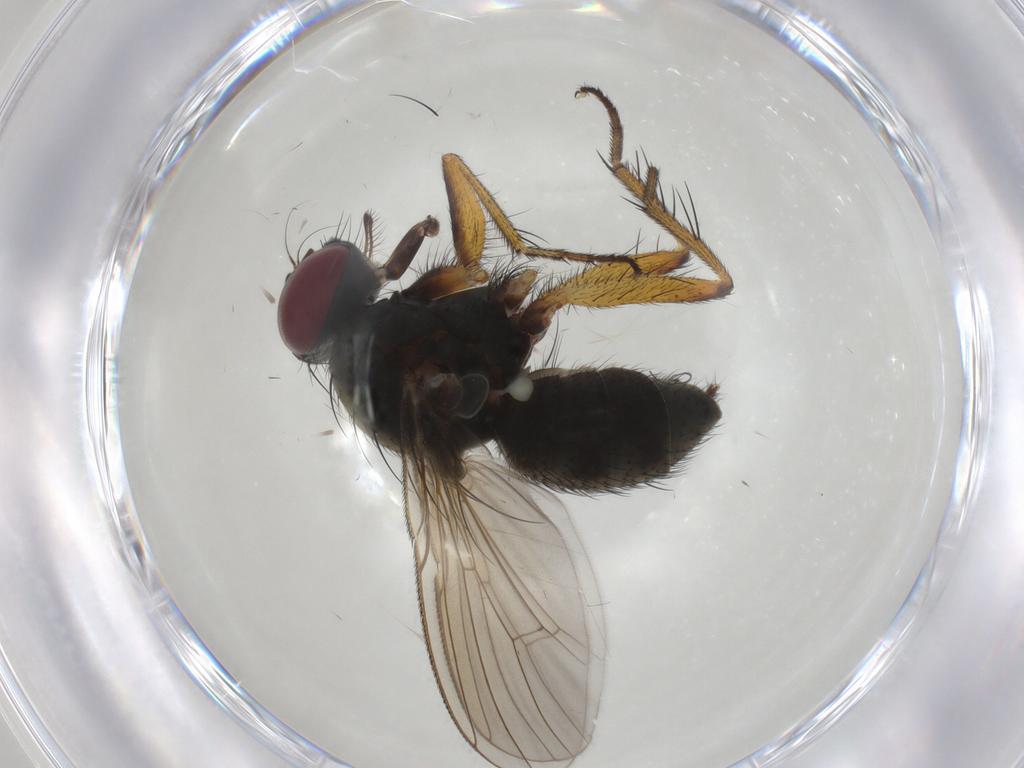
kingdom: Animalia
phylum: Arthropoda
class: Insecta
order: Diptera
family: Muscidae
